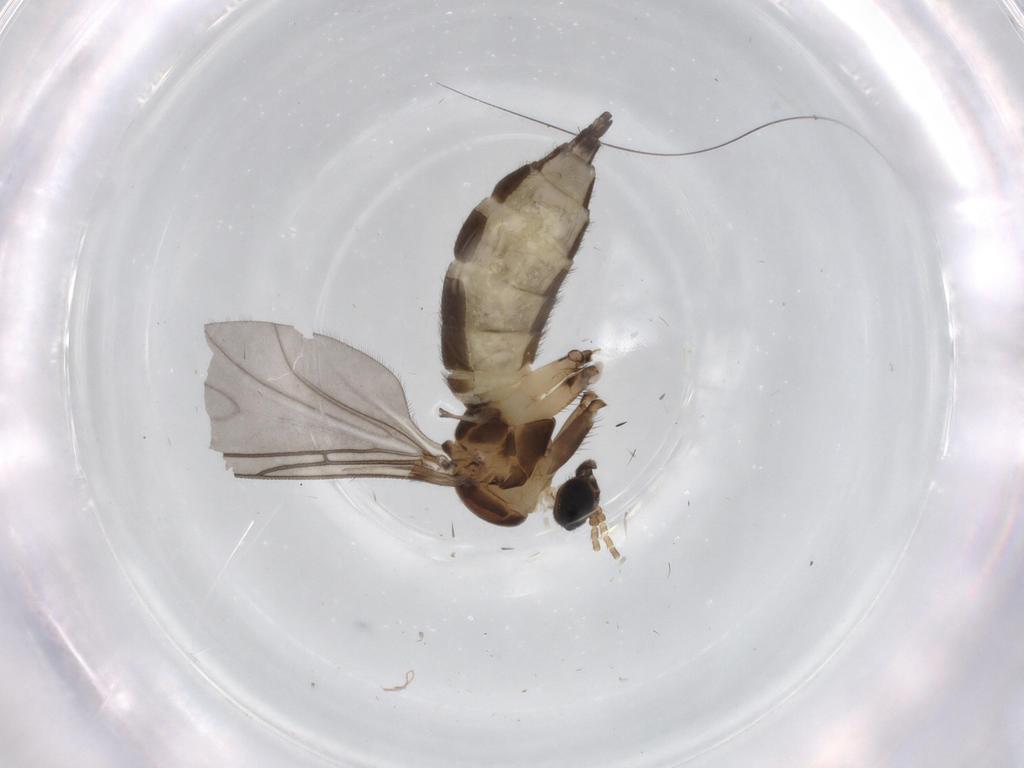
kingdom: Animalia
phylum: Arthropoda
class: Insecta
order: Diptera
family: Sciaridae
